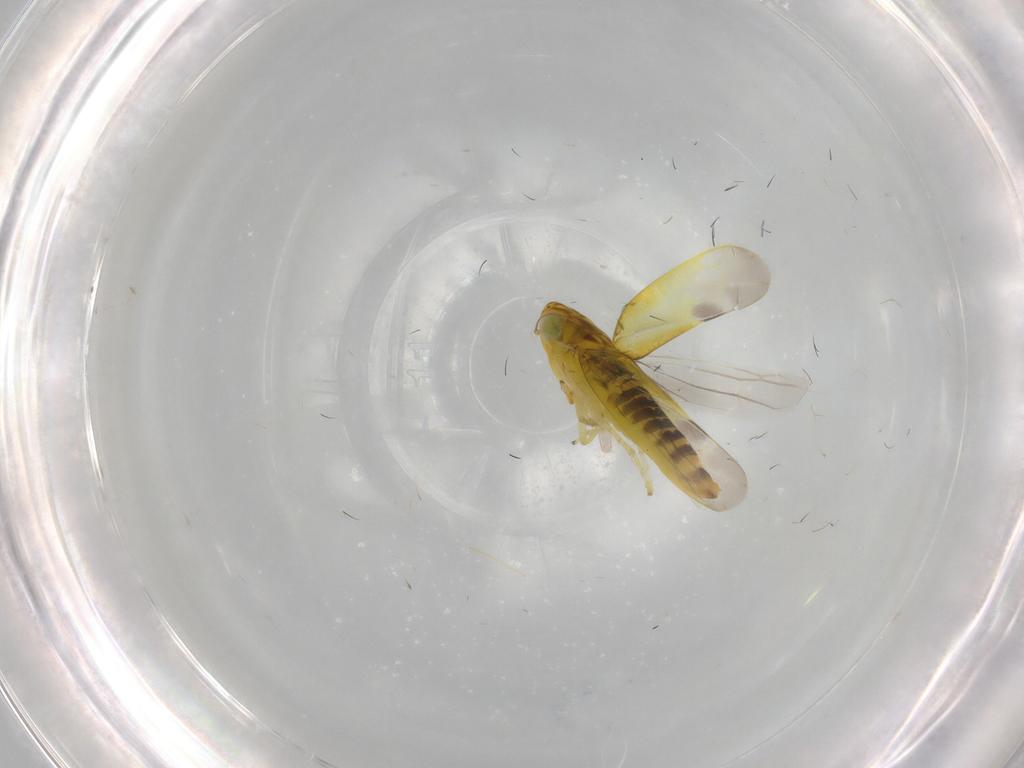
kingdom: Animalia
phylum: Arthropoda
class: Insecta
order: Hemiptera
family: Cicadellidae
